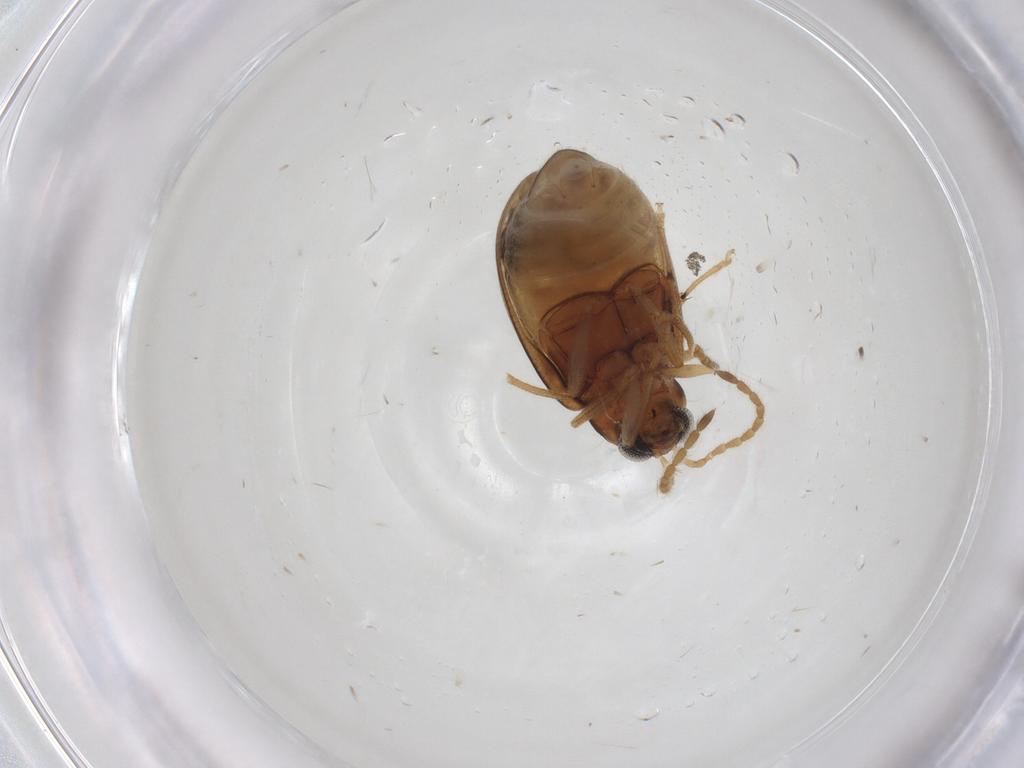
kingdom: Animalia
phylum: Arthropoda
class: Insecta
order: Coleoptera
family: Chrysomelidae
